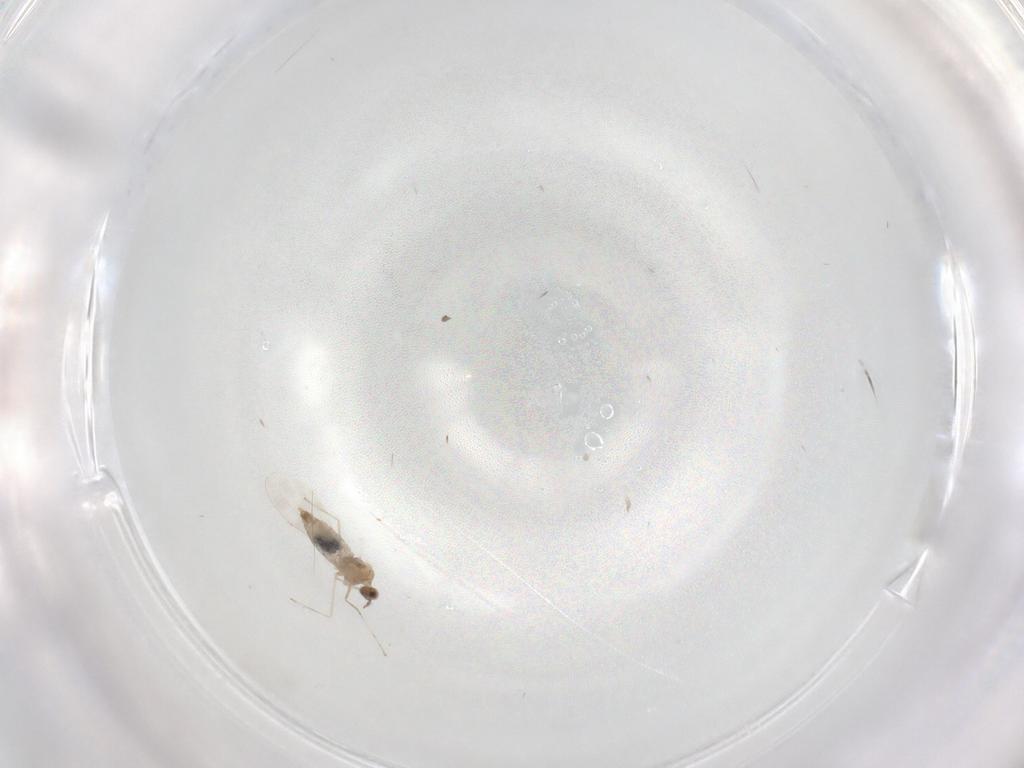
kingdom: Animalia
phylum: Arthropoda
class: Insecta
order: Diptera
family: Cecidomyiidae
